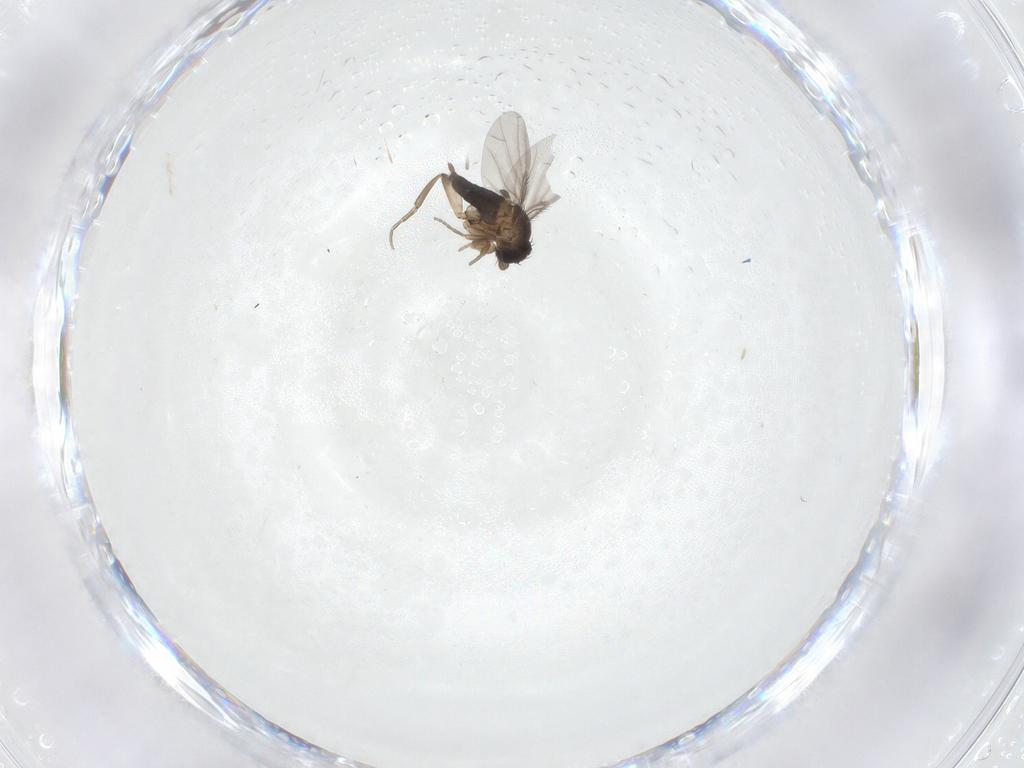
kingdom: Animalia
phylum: Arthropoda
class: Insecta
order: Diptera
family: Phoridae
